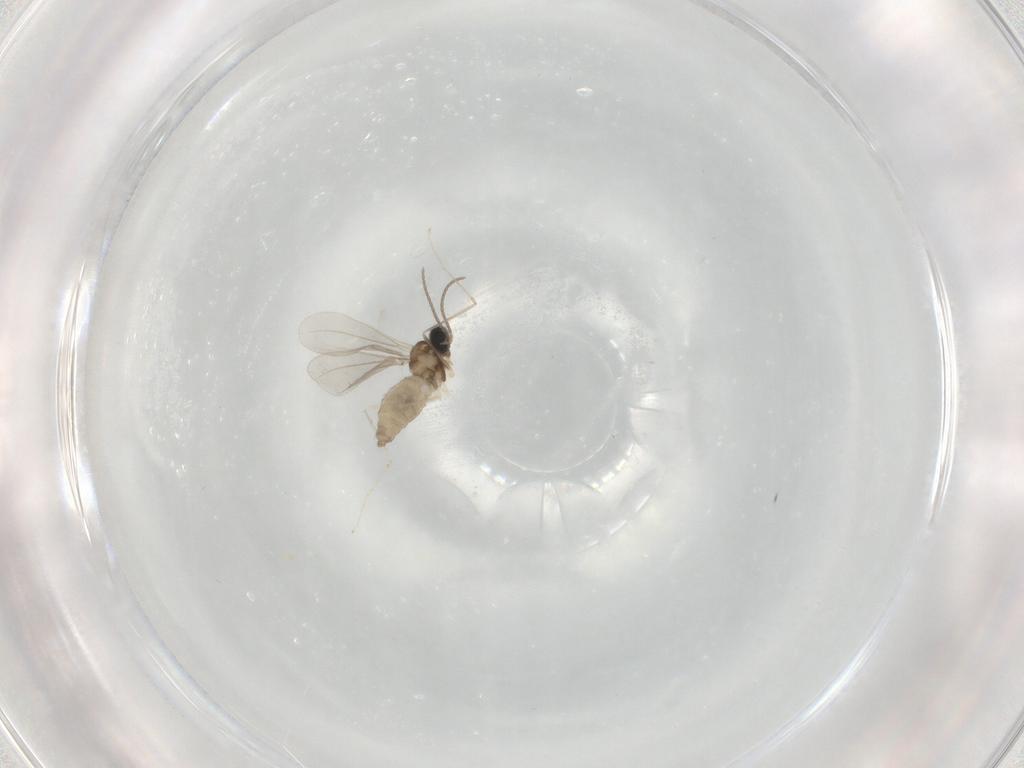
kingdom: Animalia
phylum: Arthropoda
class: Insecta
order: Diptera
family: Cecidomyiidae
